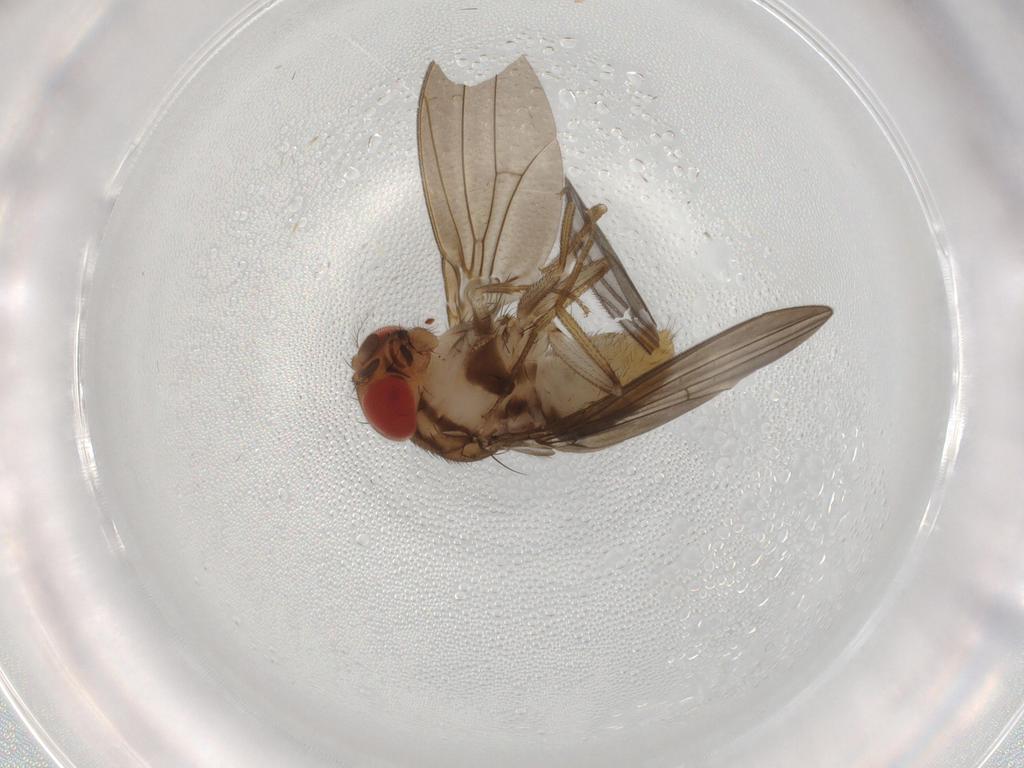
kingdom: Animalia
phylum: Arthropoda
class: Insecta
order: Diptera
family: Drosophilidae
